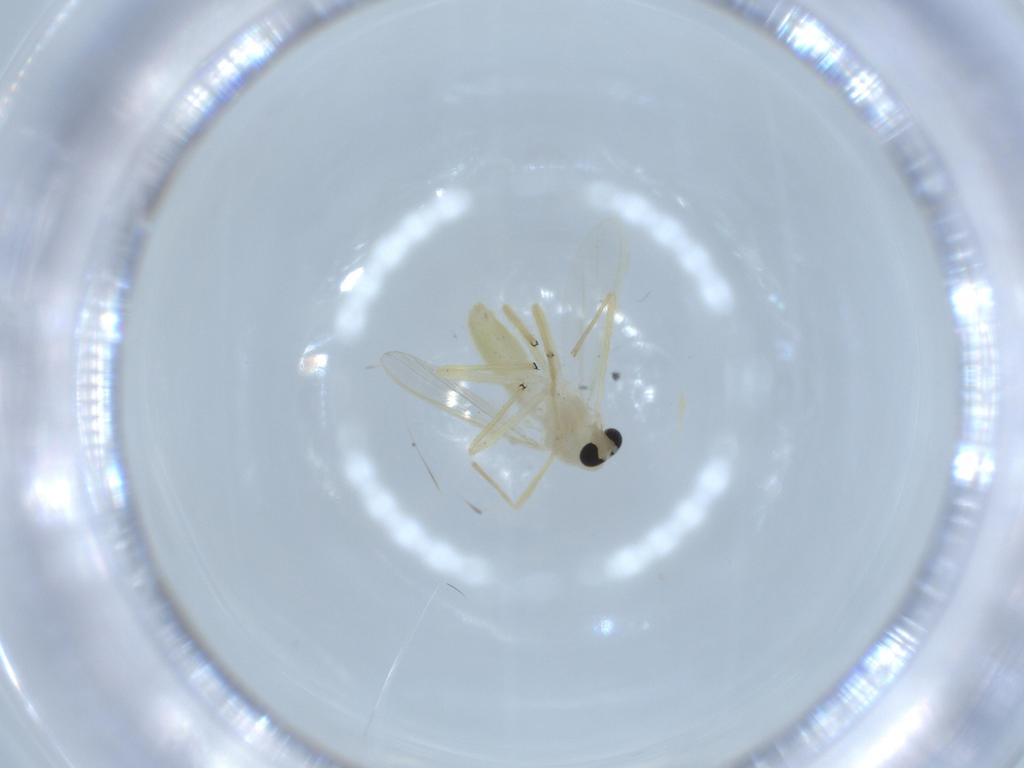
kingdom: Animalia
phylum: Arthropoda
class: Insecta
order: Diptera
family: Chironomidae
